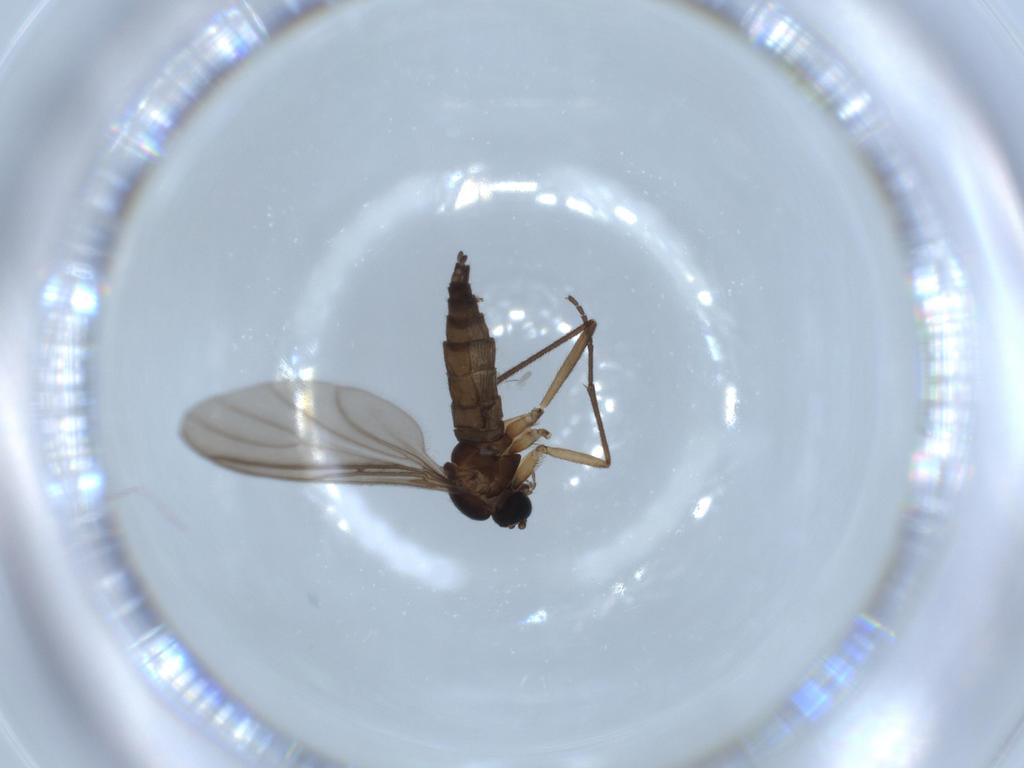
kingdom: Animalia
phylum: Arthropoda
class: Insecta
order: Diptera
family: Sciaridae
